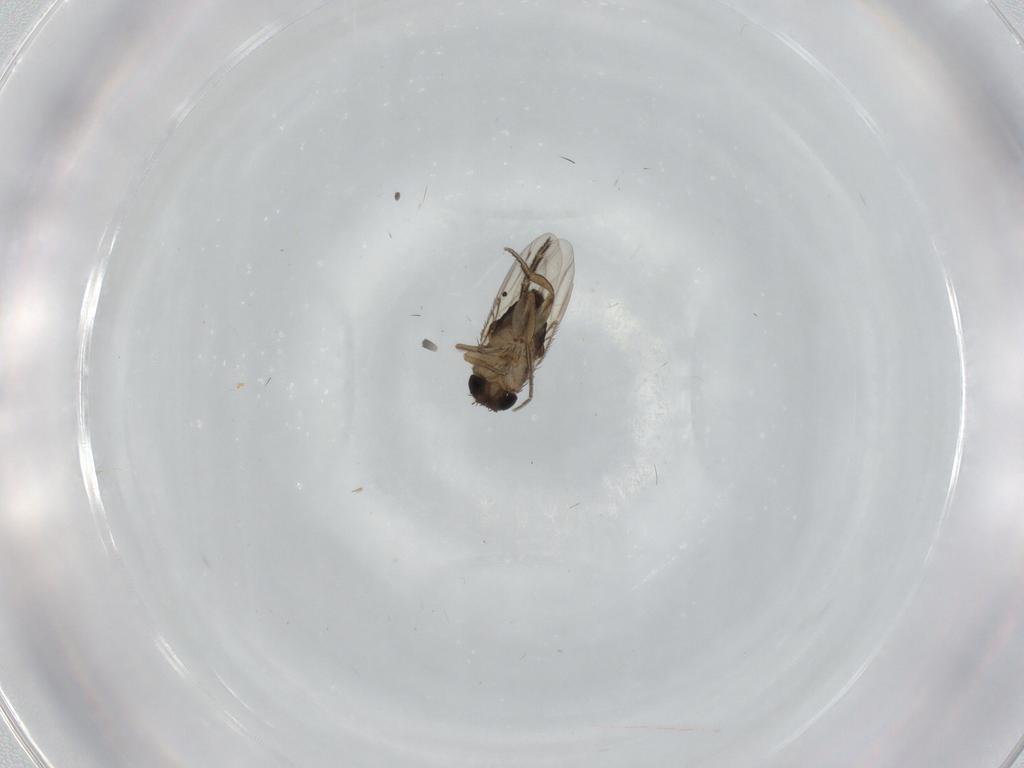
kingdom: Animalia
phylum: Arthropoda
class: Insecta
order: Diptera
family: Phoridae
